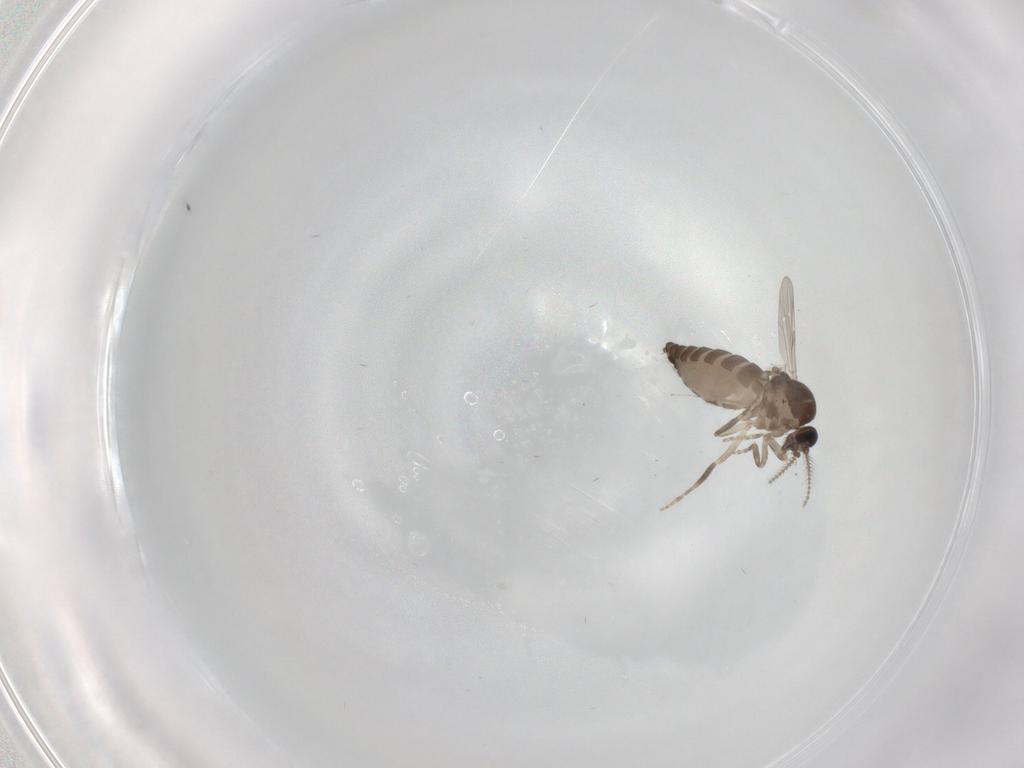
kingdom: Animalia
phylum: Arthropoda
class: Insecta
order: Diptera
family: Ceratopogonidae
